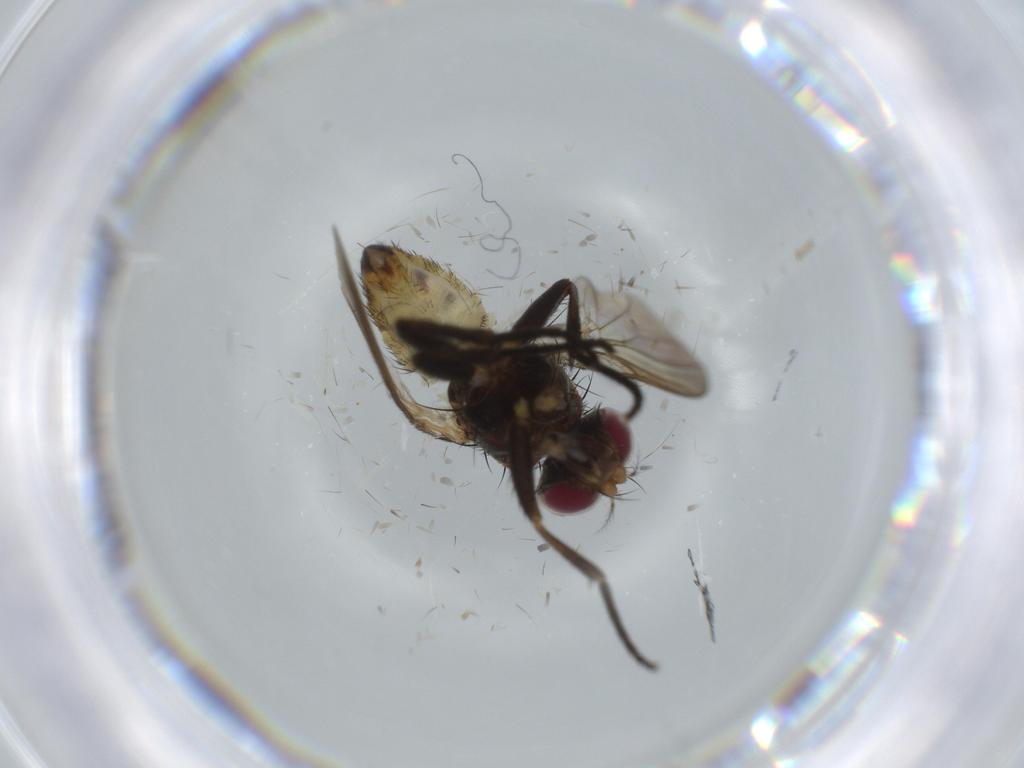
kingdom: Animalia
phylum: Arthropoda
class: Insecta
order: Diptera
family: Anthomyiidae
